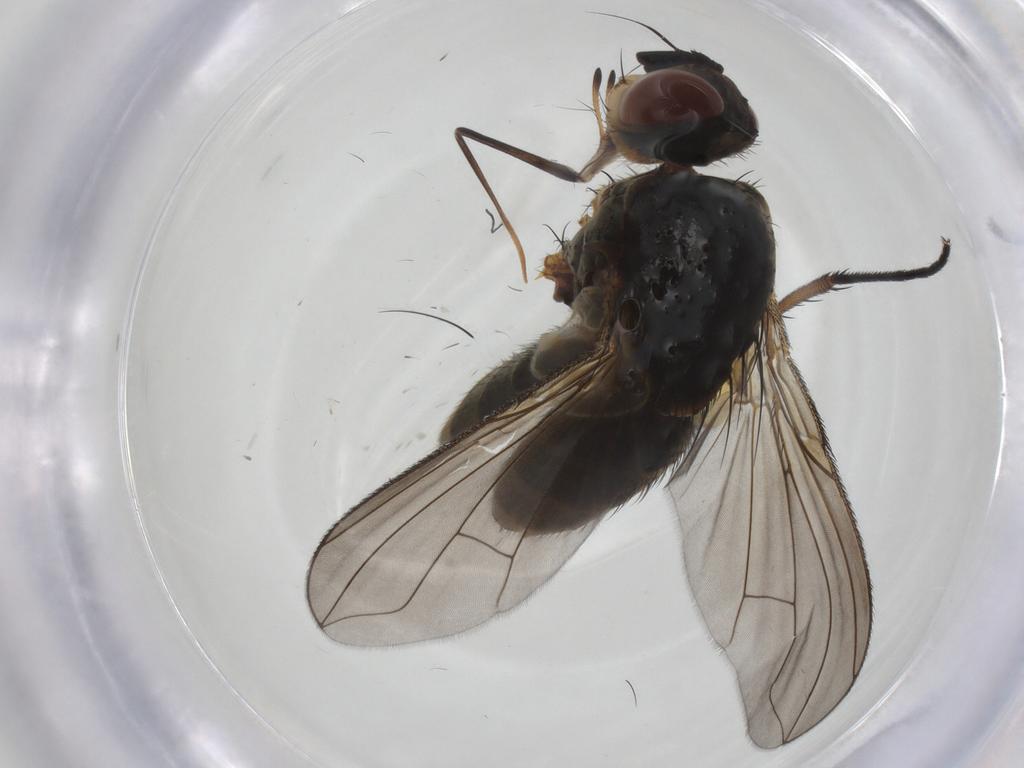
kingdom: Animalia
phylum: Arthropoda
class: Insecta
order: Diptera
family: Tachinidae
